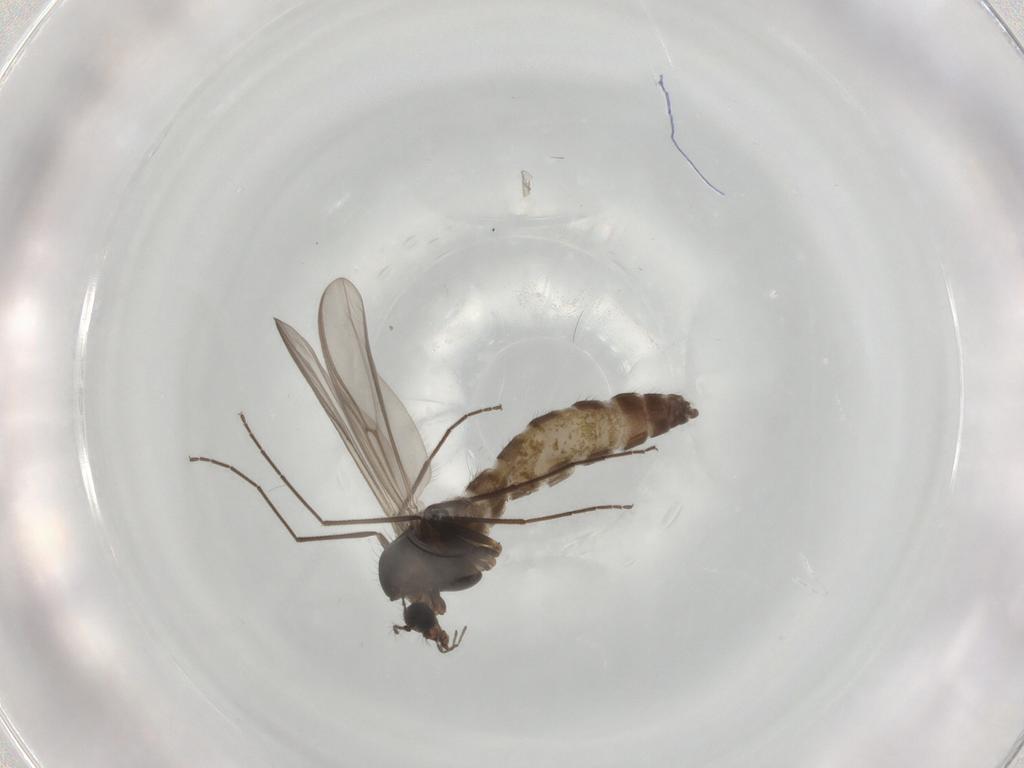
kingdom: Animalia
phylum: Arthropoda
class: Insecta
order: Diptera
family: Chironomidae
